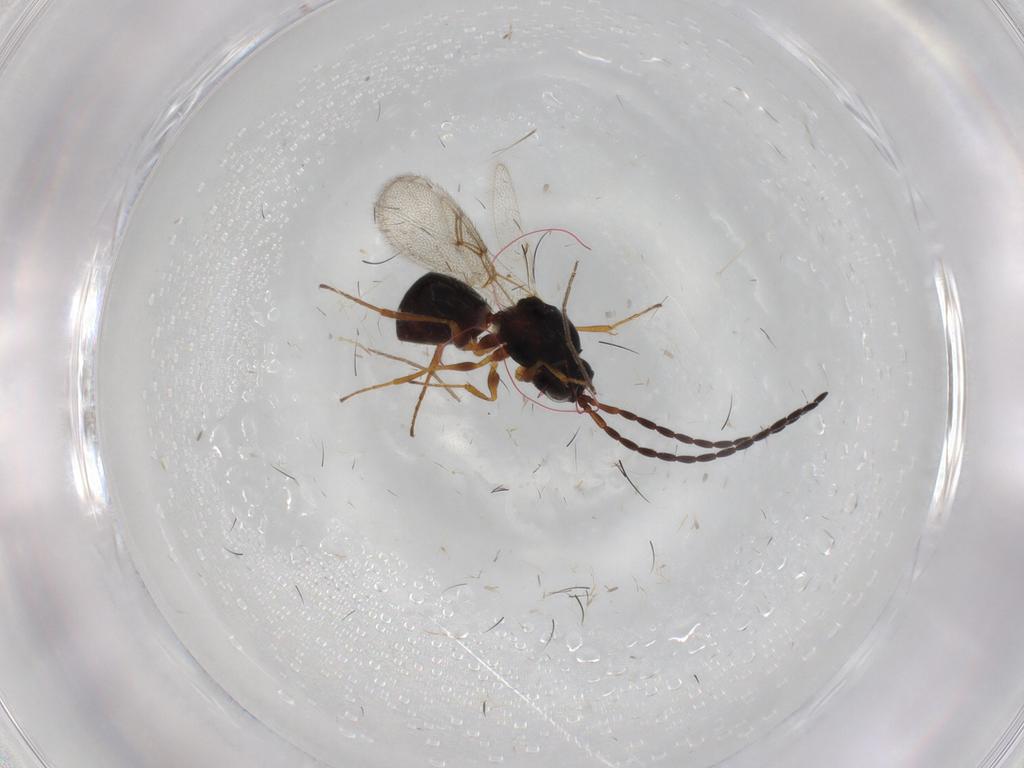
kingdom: Animalia
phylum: Arthropoda
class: Insecta
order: Hymenoptera
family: Figitidae
